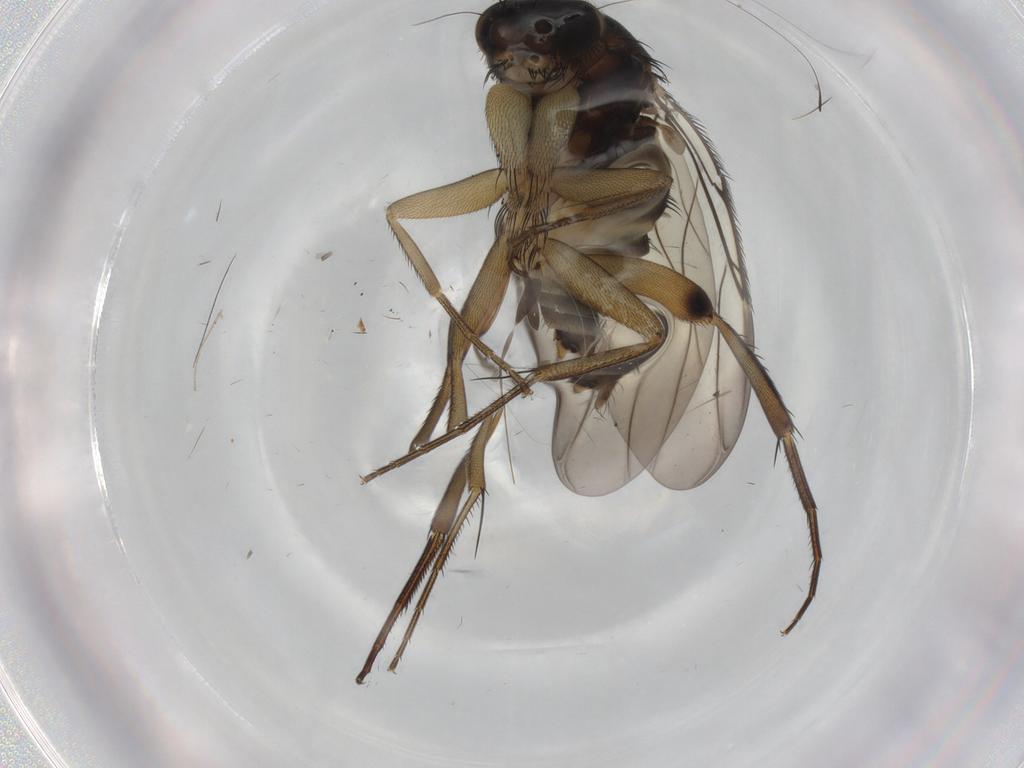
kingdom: Animalia
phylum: Arthropoda
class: Insecta
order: Diptera
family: Phoridae
